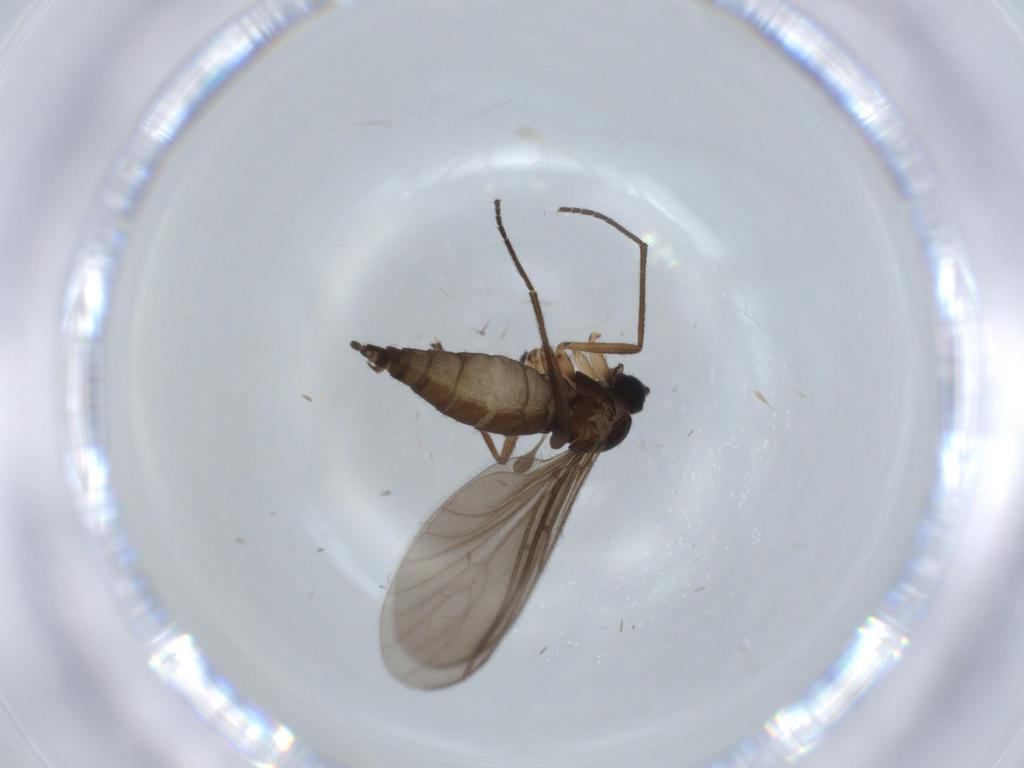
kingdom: Animalia
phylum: Arthropoda
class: Insecta
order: Diptera
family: Sciaridae
